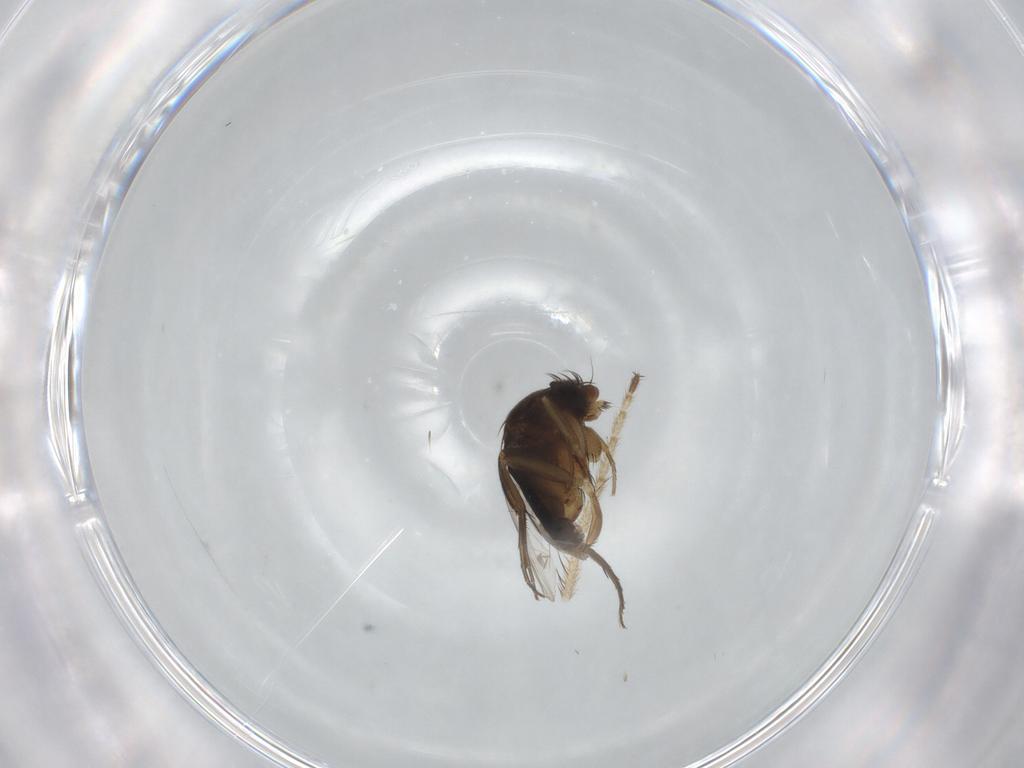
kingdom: Animalia
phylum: Arthropoda
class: Insecta
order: Diptera
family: Phoridae
